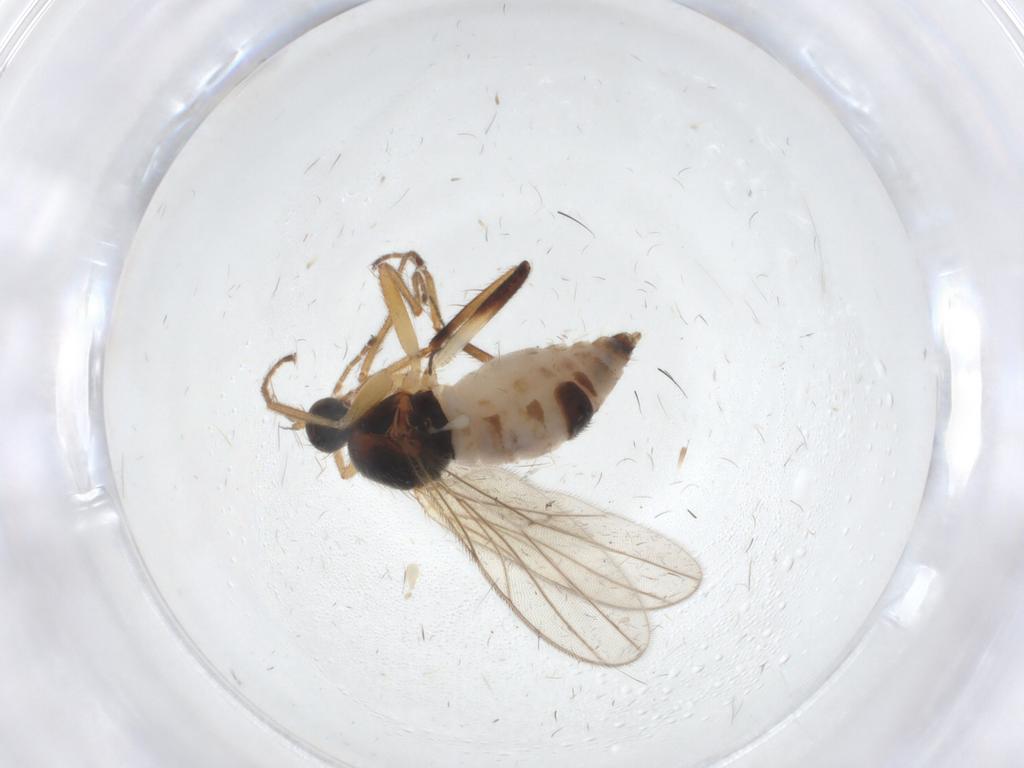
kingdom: Animalia
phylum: Arthropoda
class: Insecta
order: Diptera
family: Hybotidae
